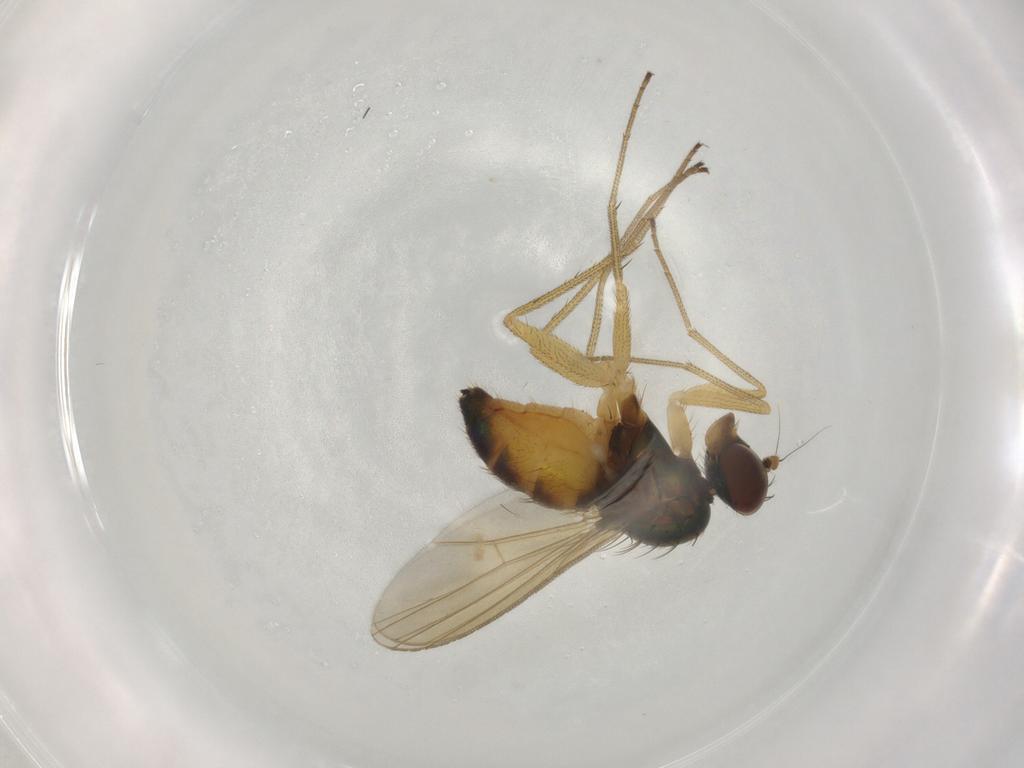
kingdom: Animalia
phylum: Arthropoda
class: Insecta
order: Diptera
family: Dolichopodidae
